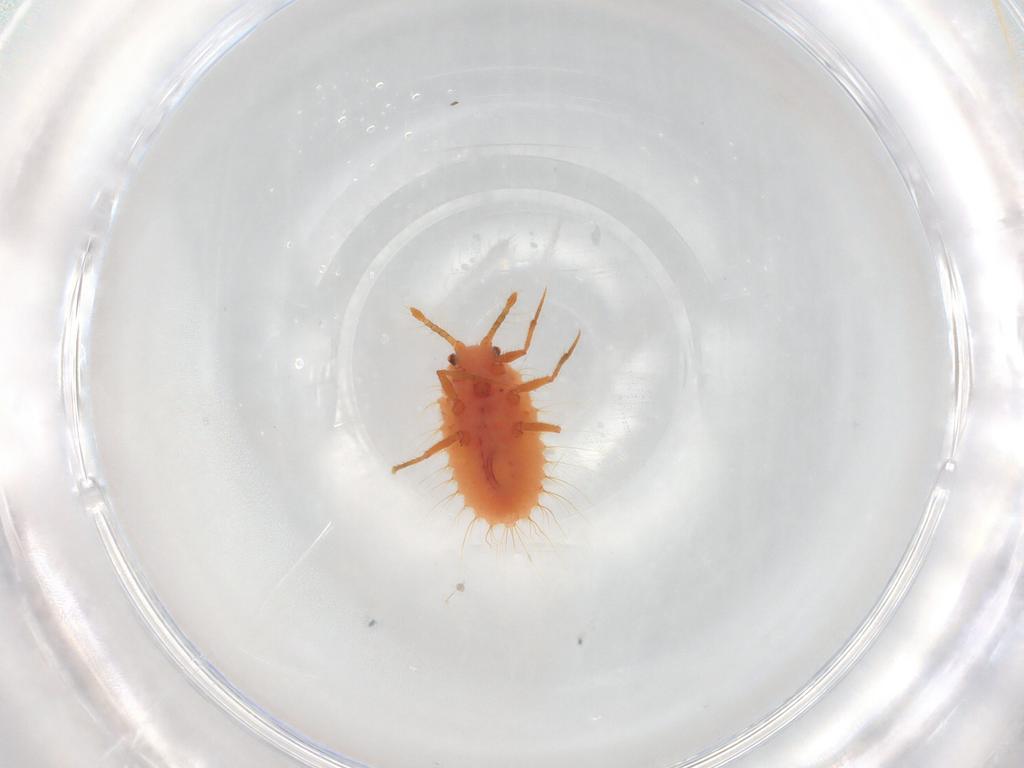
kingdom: Animalia
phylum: Arthropoda
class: Insecta
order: Hemiptera
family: Coccoidea_incertae_sedis
